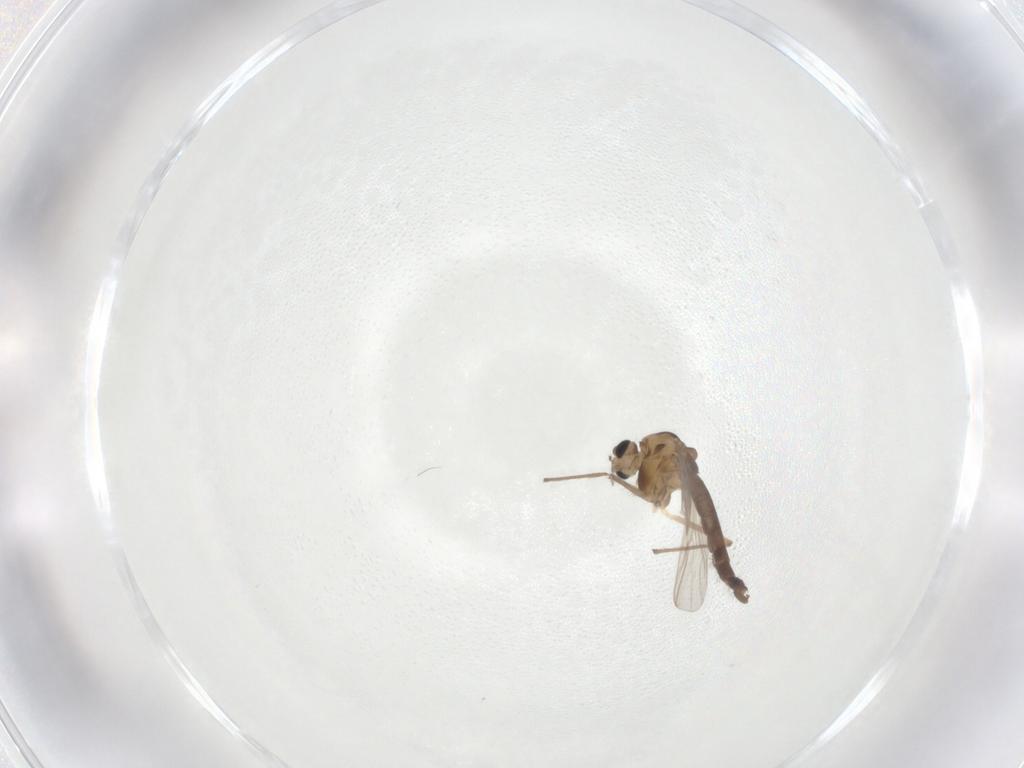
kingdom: Animalia
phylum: Arthropoda
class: Insecta
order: Diptera
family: Chironomidae
